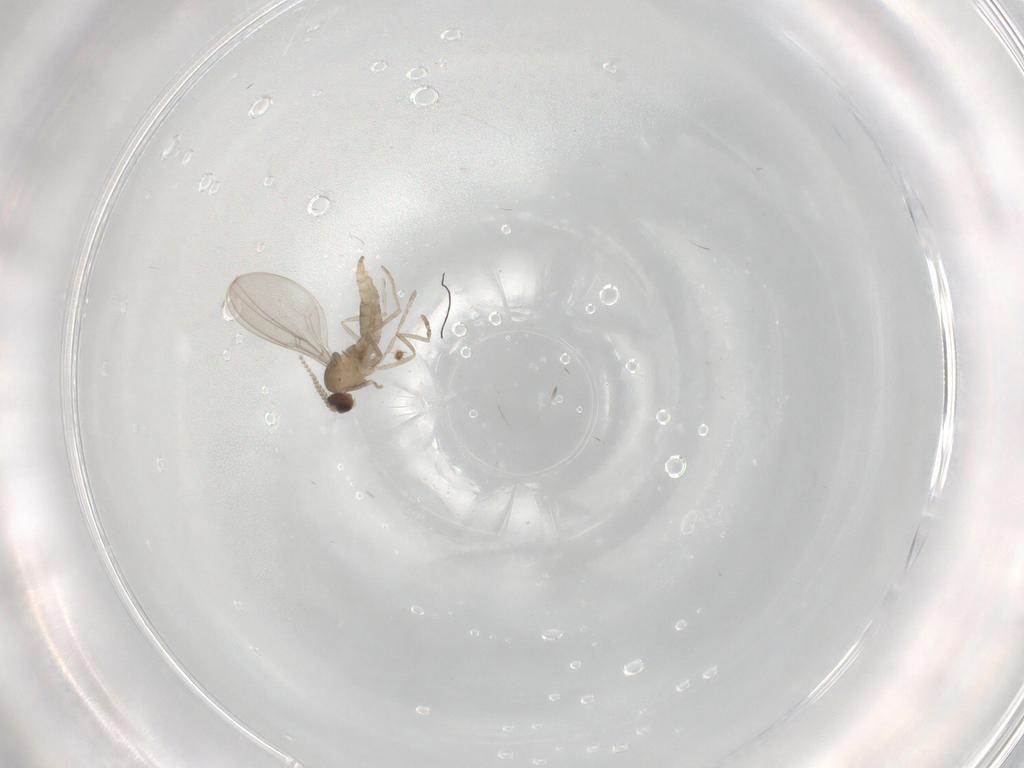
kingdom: Animalia
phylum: Arthropoda
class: Insecta
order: Diptera
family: Cecidomyiidae
